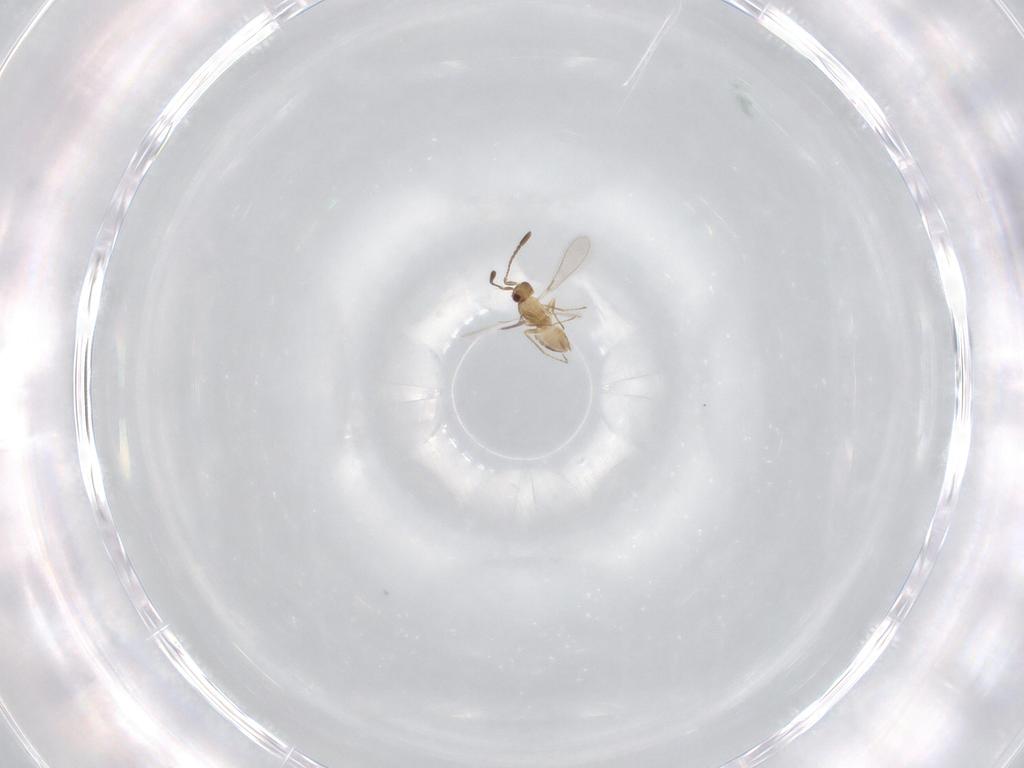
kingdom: Animalia
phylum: Arthropoda
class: Insecta
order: Hymenoptera
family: Mymaridae
